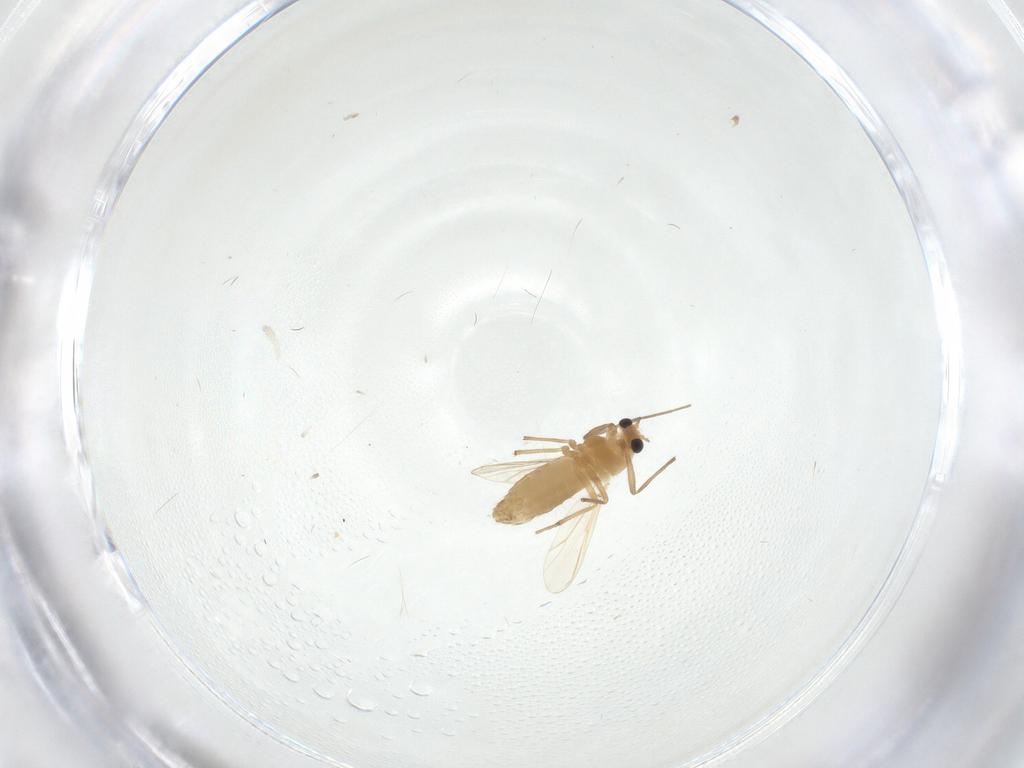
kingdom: Animalia
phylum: Arthropoda
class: Insecta
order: Diptera
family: Chironomidae
